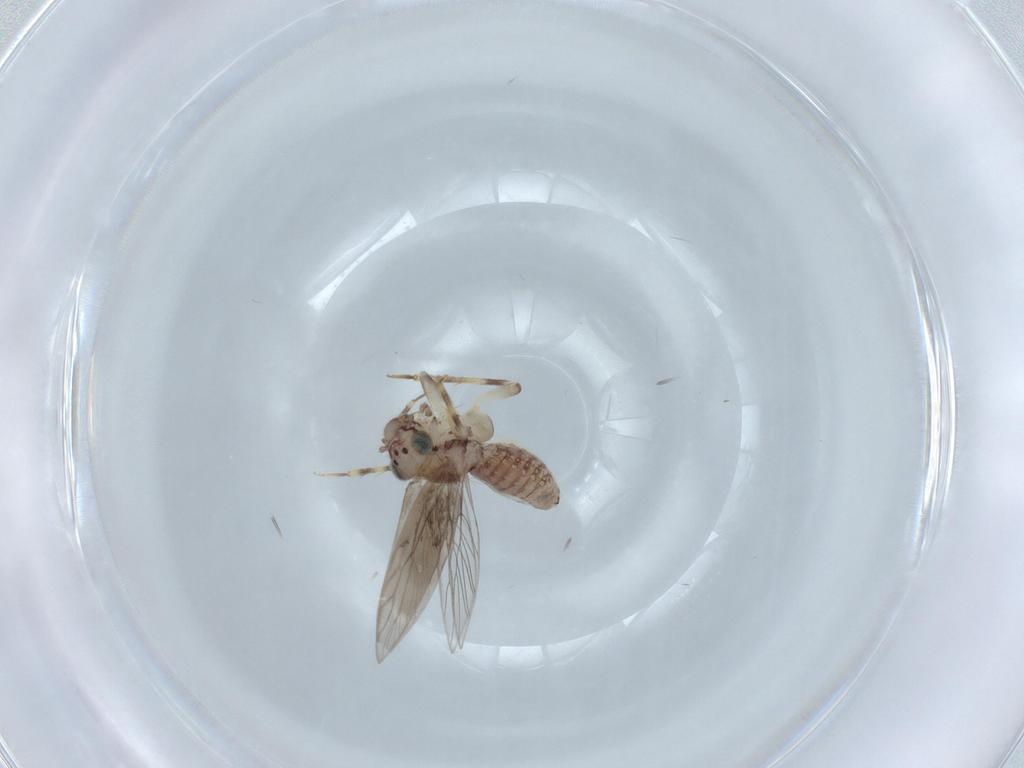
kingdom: Animalia
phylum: Arthropoda
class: Insecta
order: Psocodea
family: Lepidopsocidae
